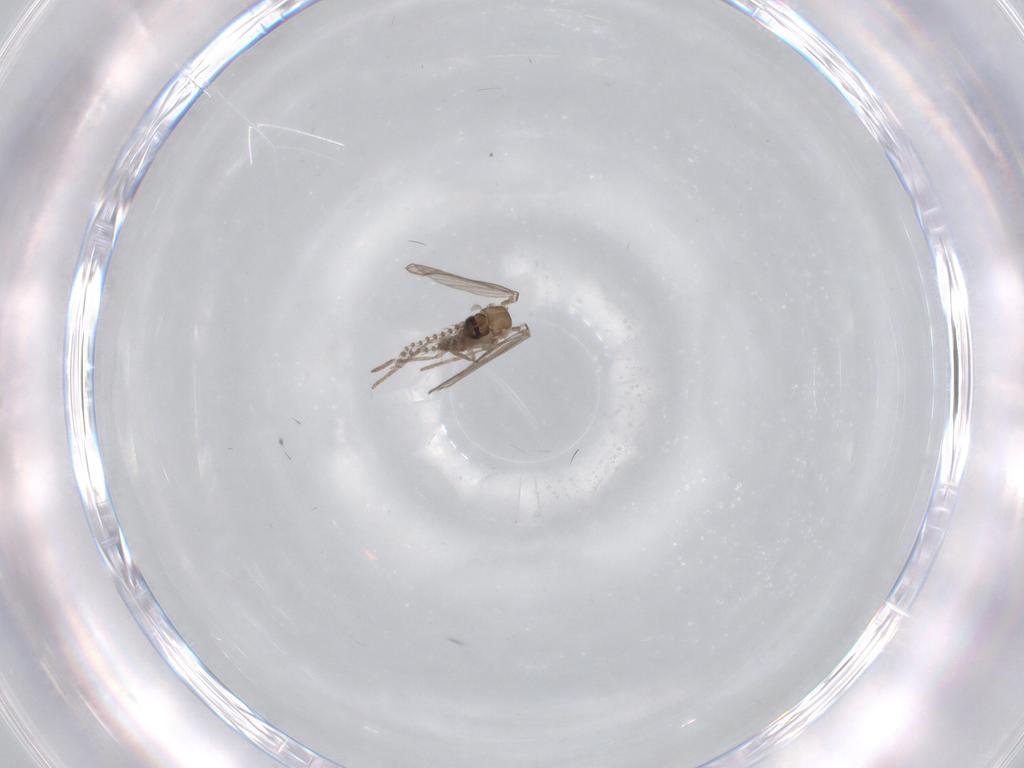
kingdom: Animalia
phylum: Arthropoda
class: Insecta
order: Diptera
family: Psychodidae
